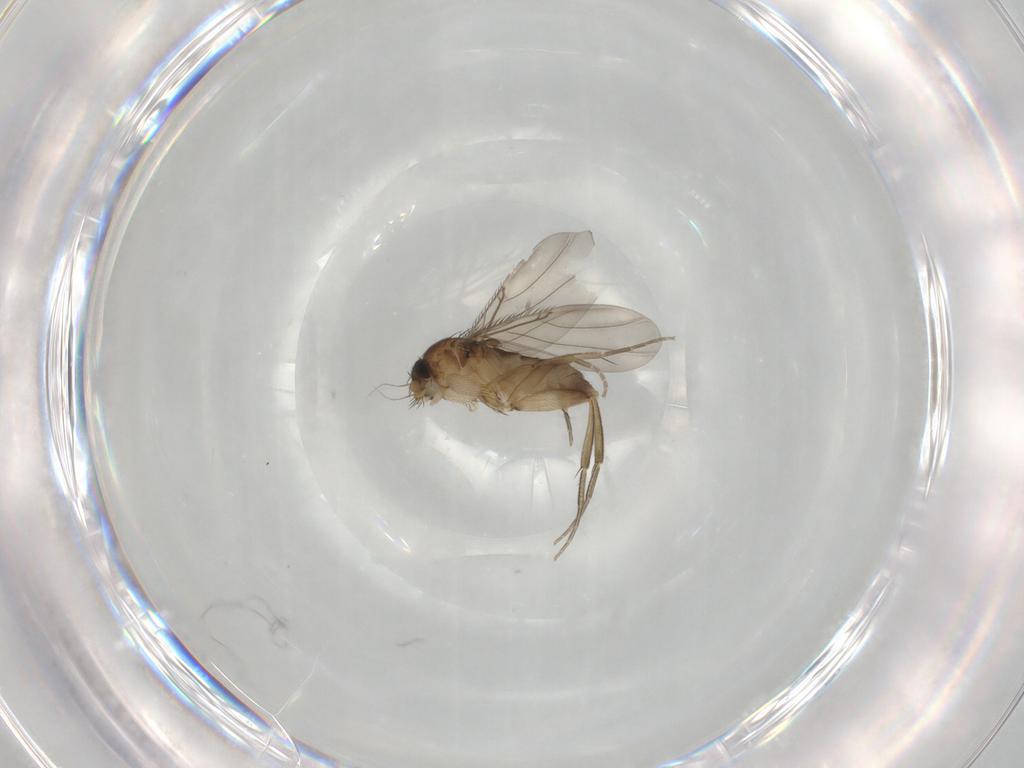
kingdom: Animalia
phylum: Arthropoda
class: Insecta
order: Diptera
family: Phoridae
